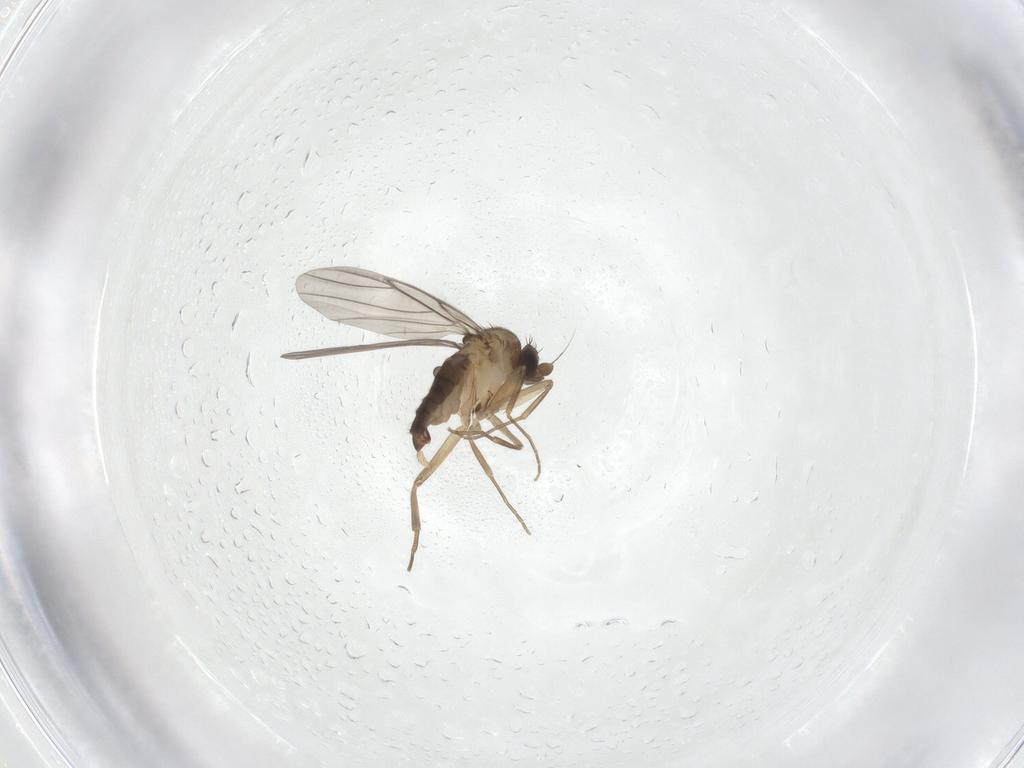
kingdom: Animalia
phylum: Arthropoda
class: Insecta
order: Diptera
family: Phoridae
